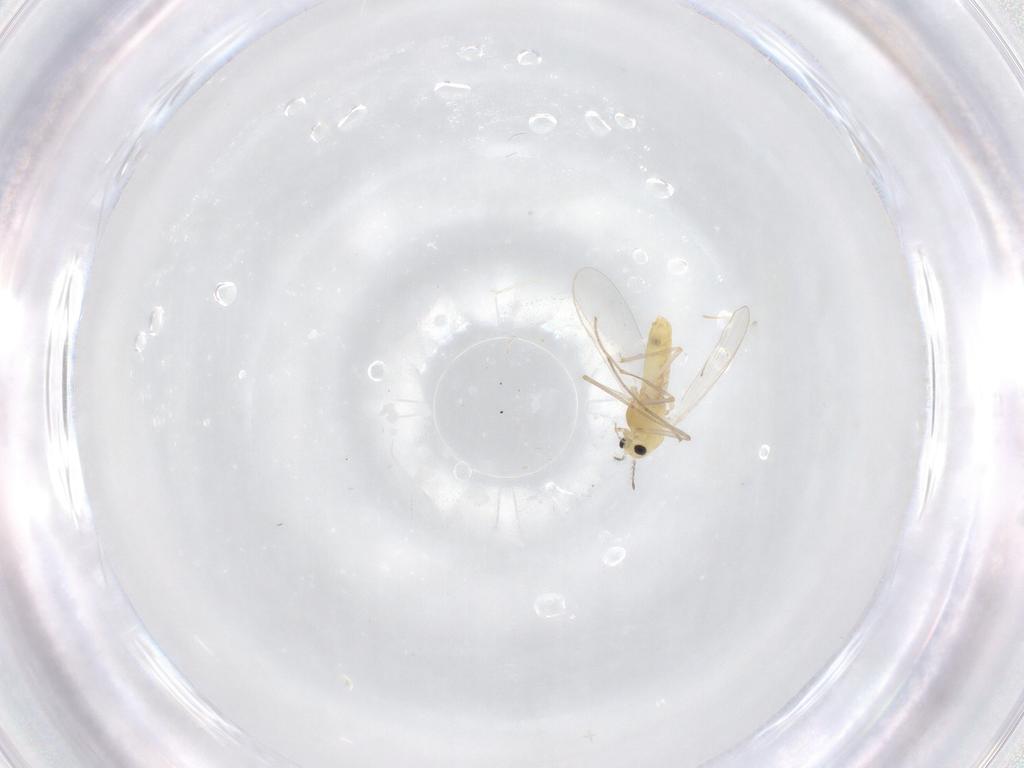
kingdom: Animalia
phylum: Arthropoda
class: Insecta
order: Diptera
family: Chironomidae
